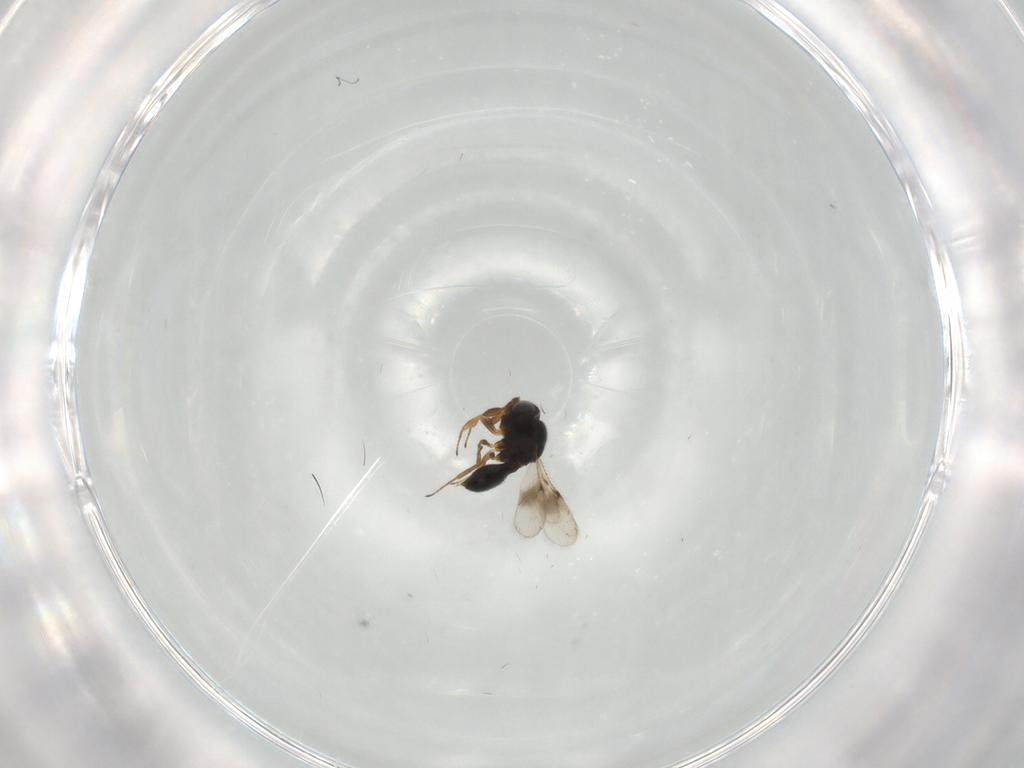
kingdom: Animalia
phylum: Arthropoda
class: Insecta
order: Hymenoptera
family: Scelionidae
